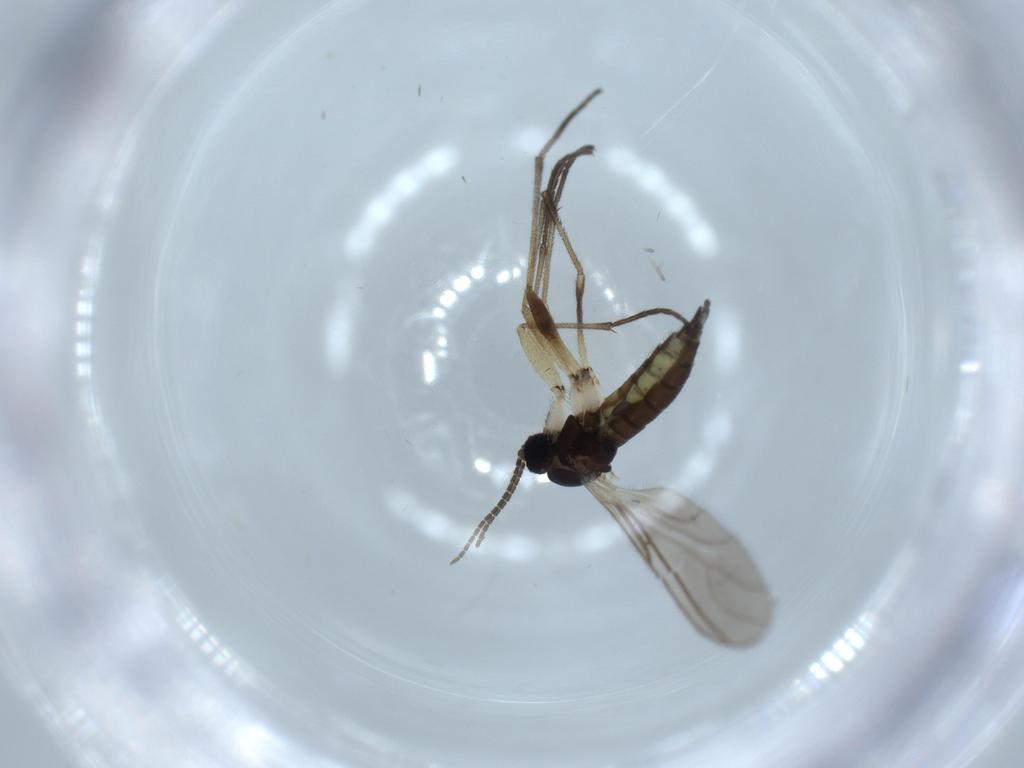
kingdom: Animalia
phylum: Arthropoda
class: Insecta
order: Diptera
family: Sciaridae
